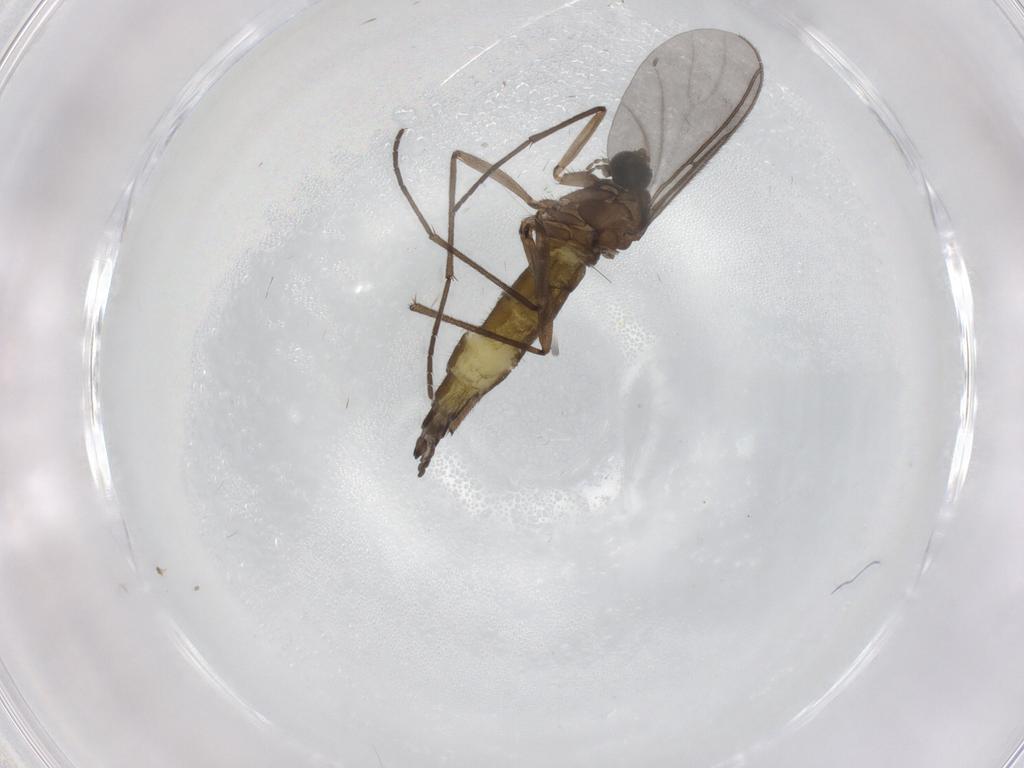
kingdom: Animalia
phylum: Arthropoda
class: Insecta
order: Diptera
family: Sciaridae
